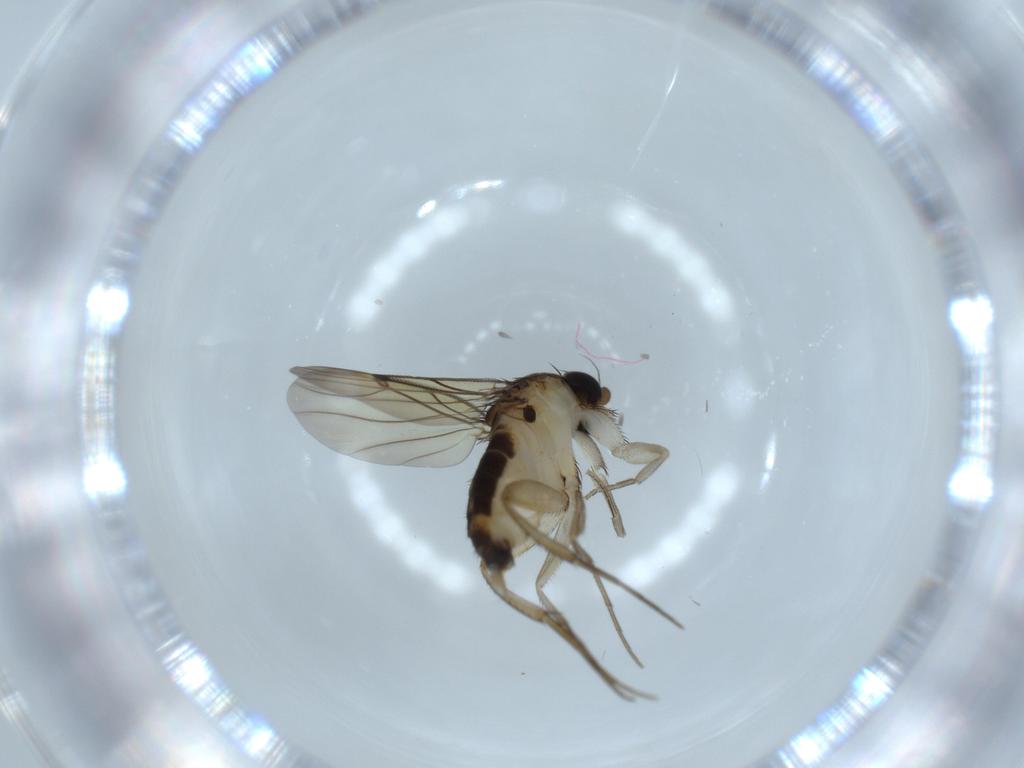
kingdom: Animalia
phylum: Arthropoda
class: Insecta
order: Diptera
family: Phoridae
